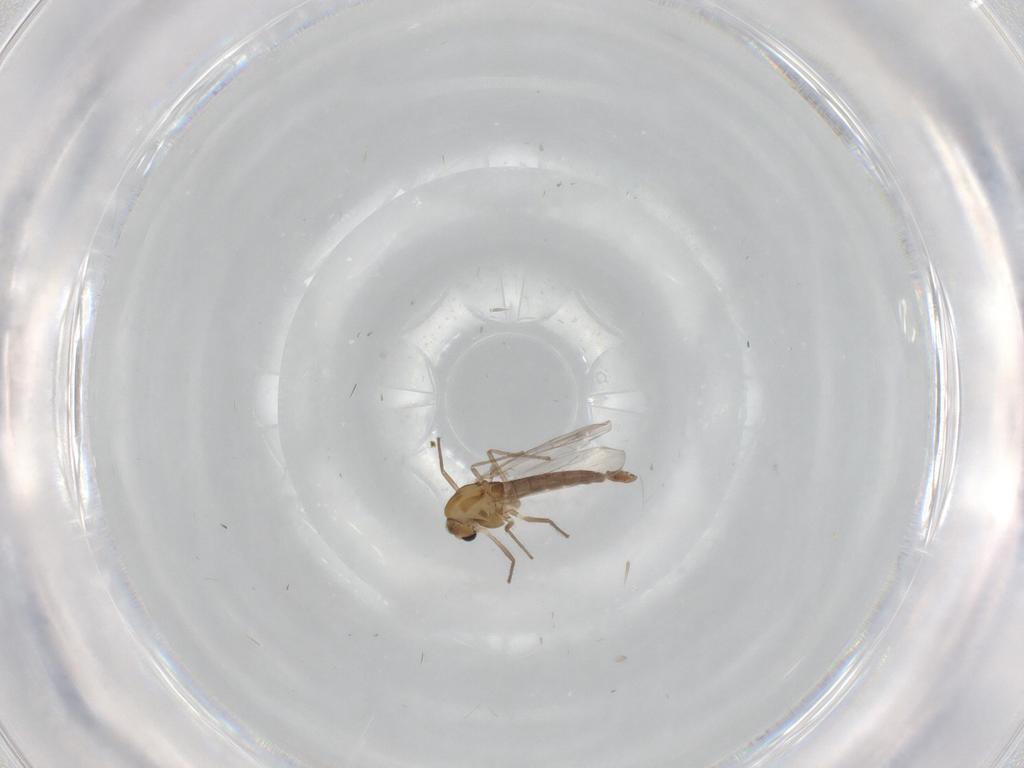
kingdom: Animalia
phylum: Arthropoda
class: Insecta
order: Diptera
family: Chironomidae
